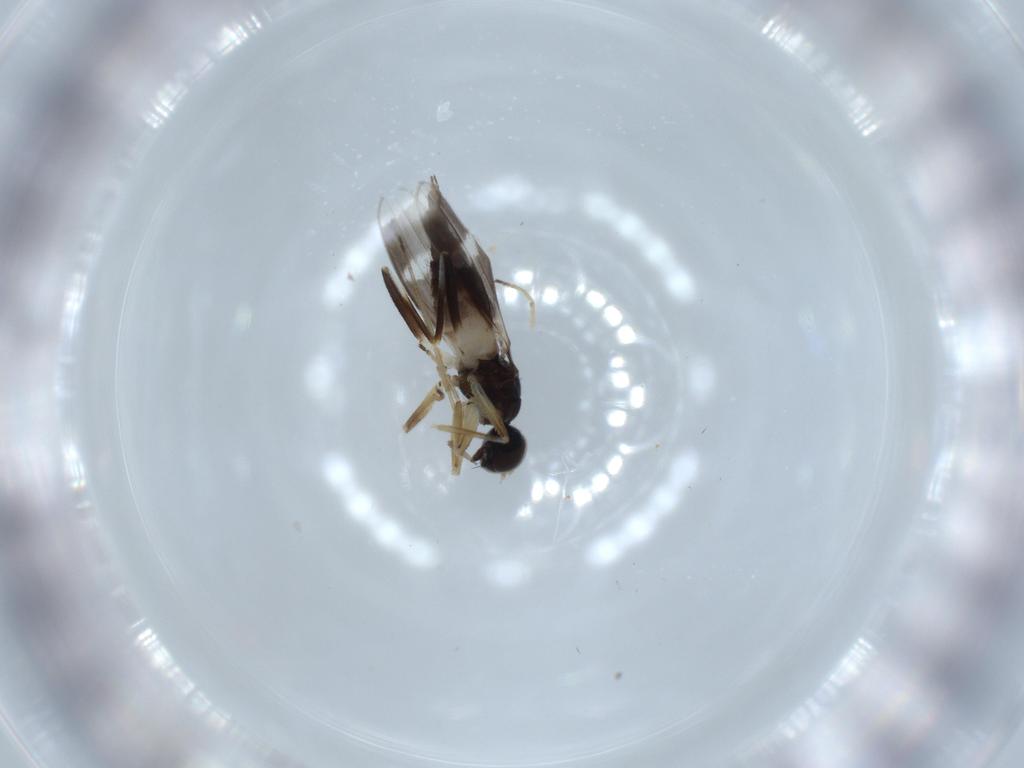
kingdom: Animalia
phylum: Arthropoda
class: Insecta
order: Diptera
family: Hybotidae
